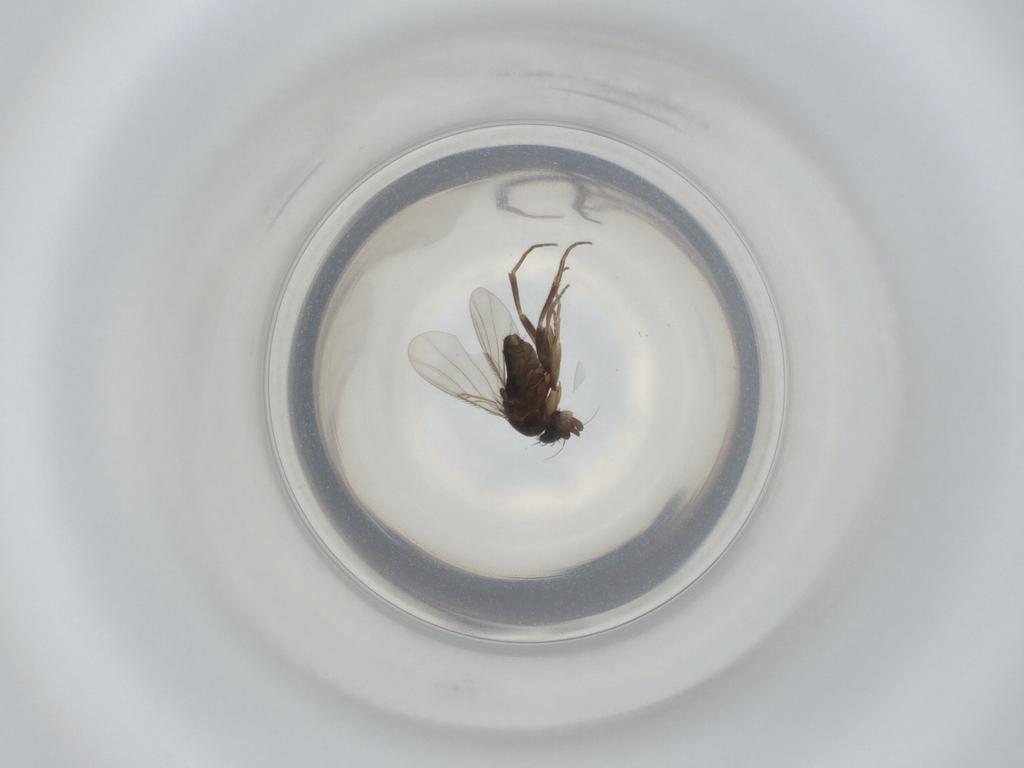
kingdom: Animalia
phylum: Arthropoda
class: Insecta
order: Diptera
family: Phoridae
